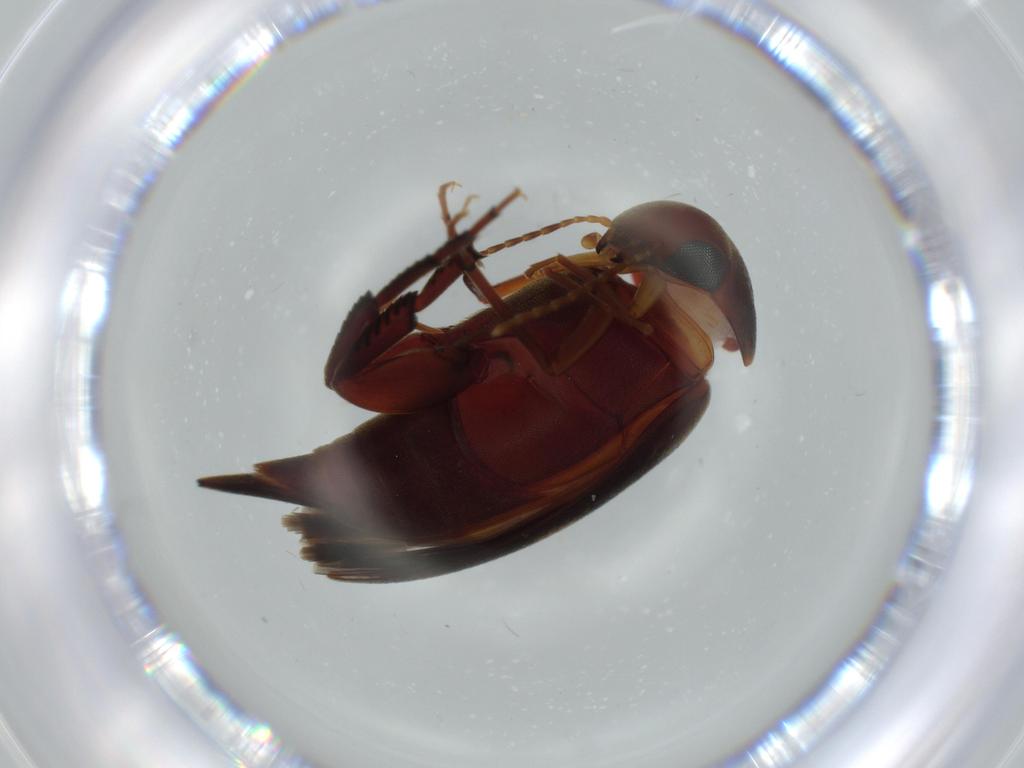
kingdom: Animalia
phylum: Arthropoda
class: Insecta
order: Coleoptera
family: Mordellidae
